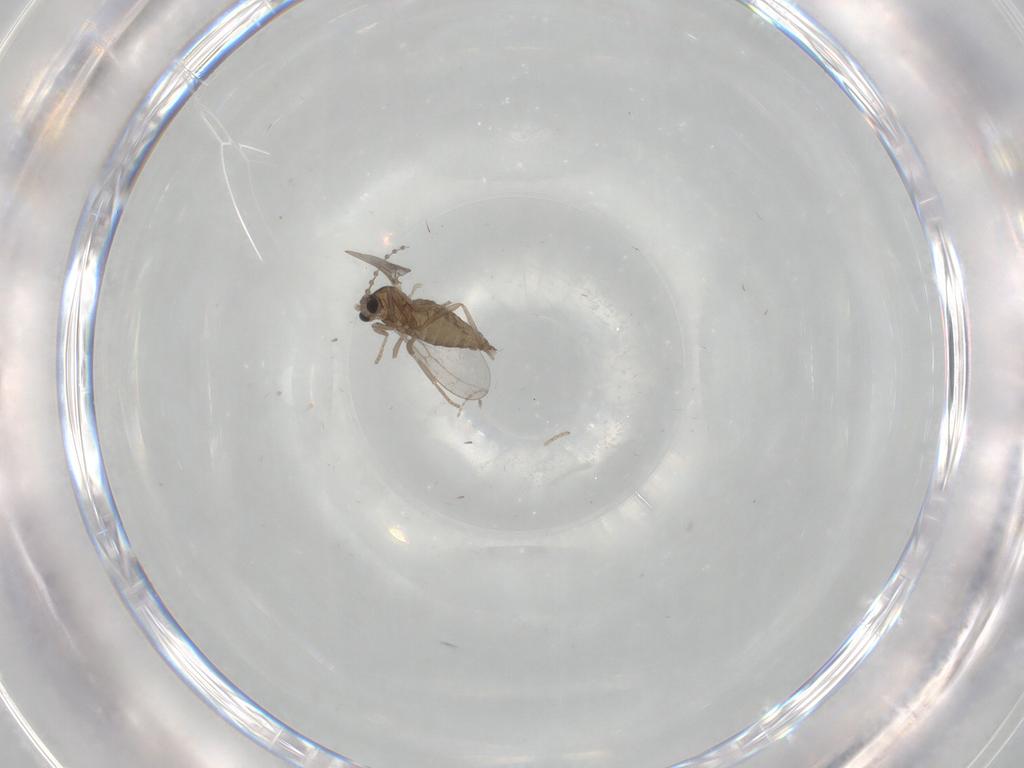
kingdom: Animalia
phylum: Arthropoda
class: Insecta
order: Diptera
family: Cecidomyiidae
